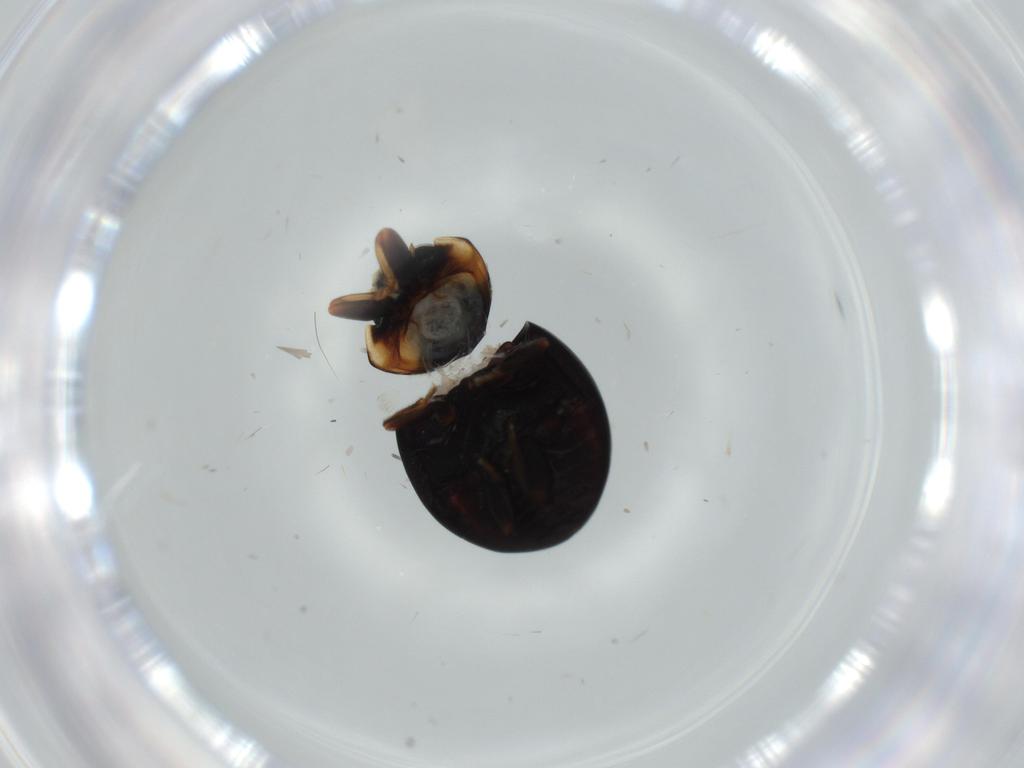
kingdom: Animalia
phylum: Arthropoda
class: Insecta
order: Coleoptera
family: Coccinellidae
